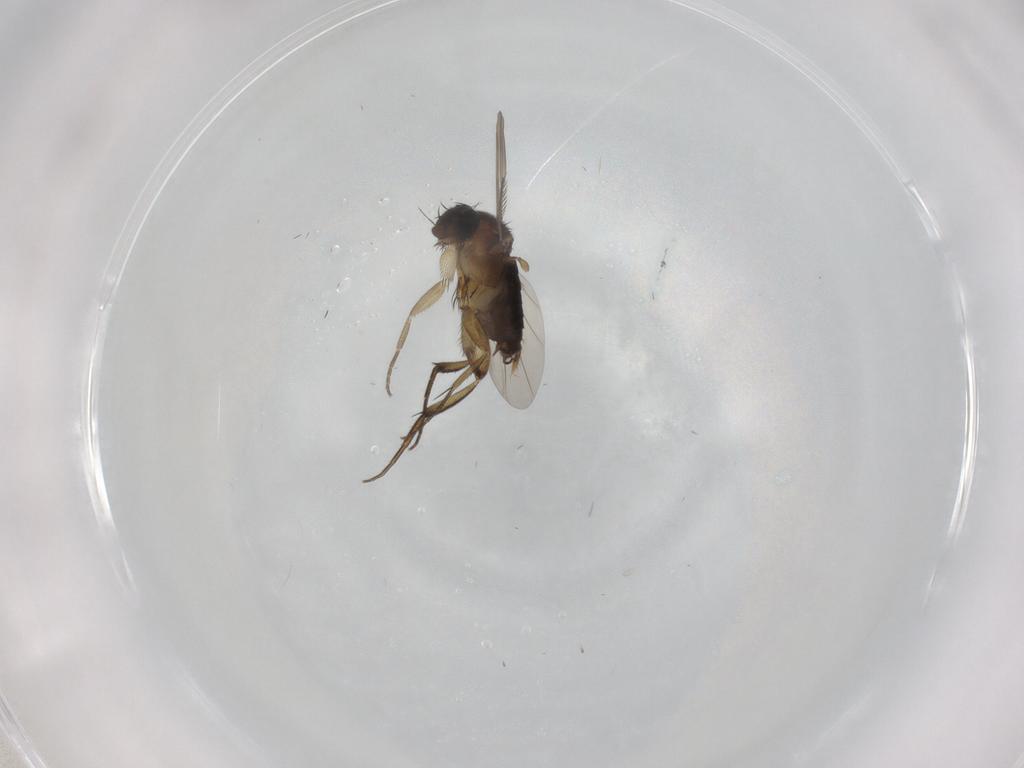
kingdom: Animalia
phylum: Arthropoda
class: Insecta
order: Diptera
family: Phoridae
